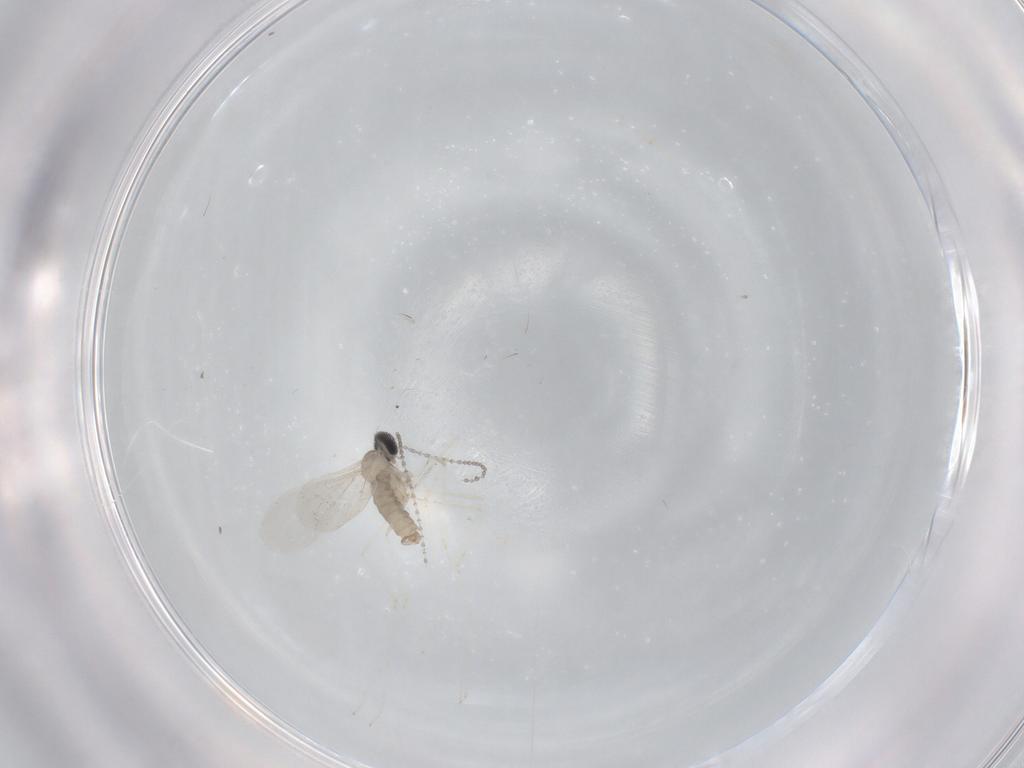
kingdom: Animalia
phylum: Arthropoda
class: Insecta
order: Diptera
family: Cecidomyiidae
